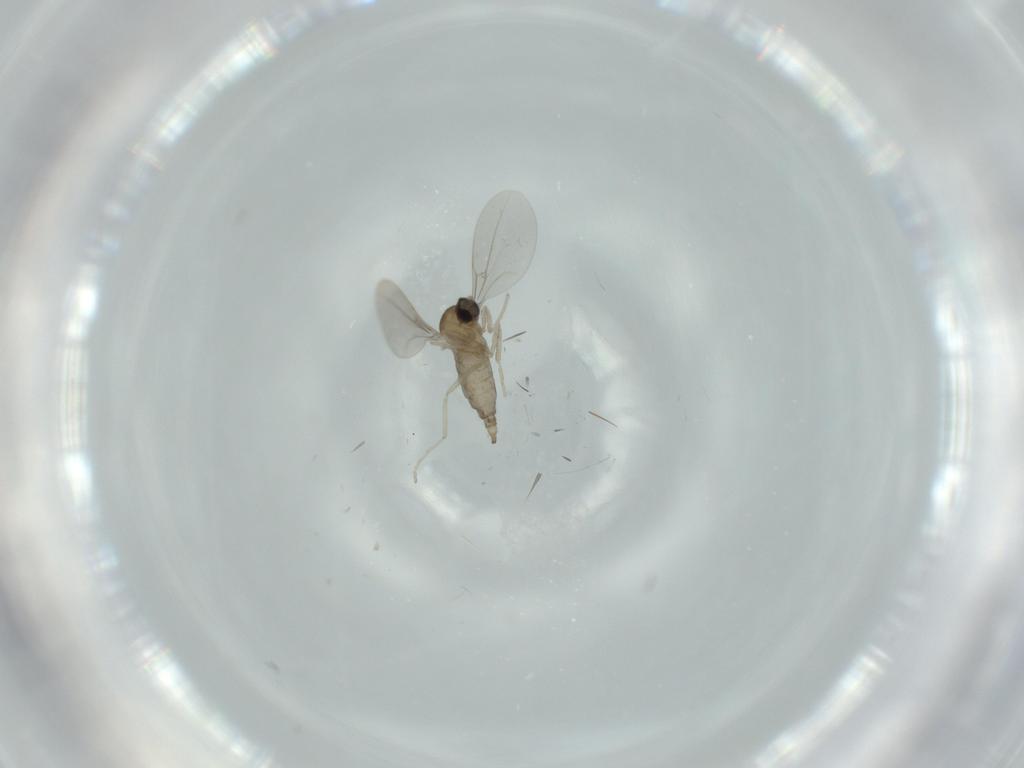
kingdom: Animalia
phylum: Arthropoda
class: Insecta
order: Diptera
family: Cecidomyiidae
